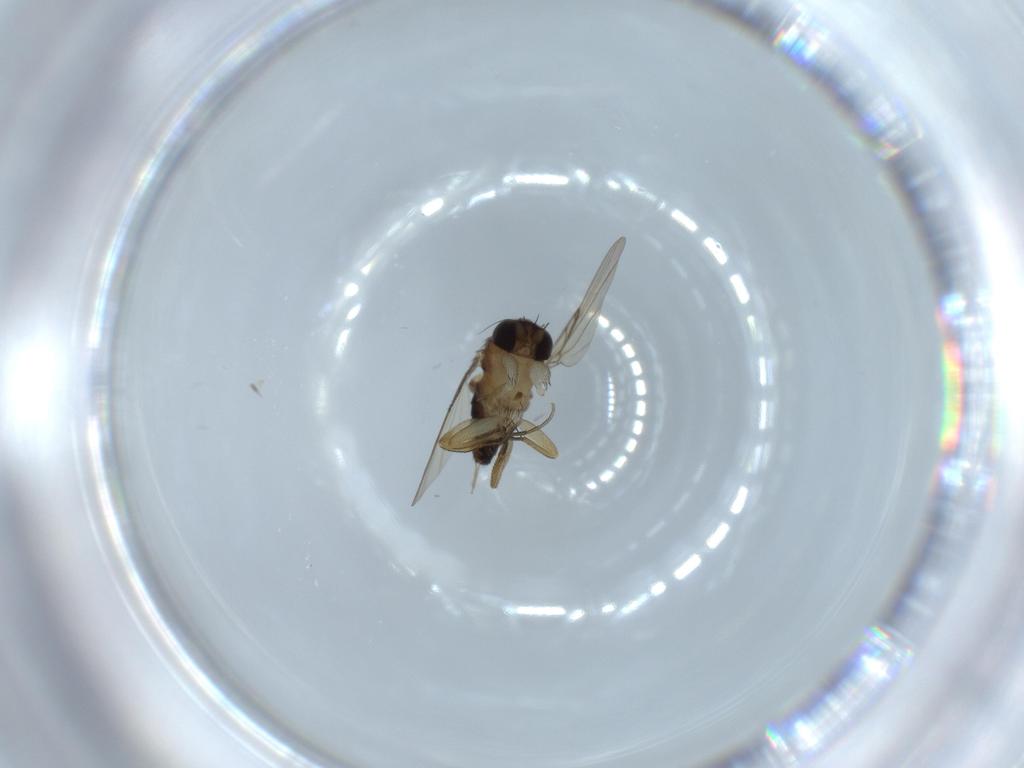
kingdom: Animalia
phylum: Arthropoda
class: Insecta
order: Diptera
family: Phoridae
